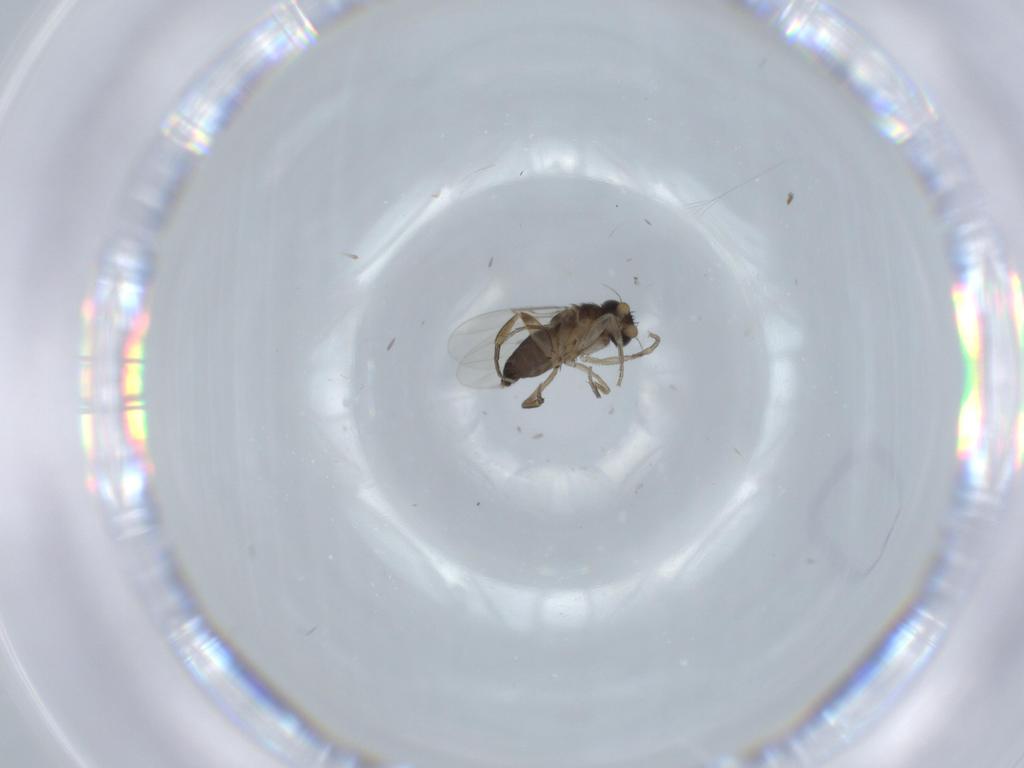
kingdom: Animalia
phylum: Arthropoda
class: Insecta
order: Diptera
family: Phoridae
